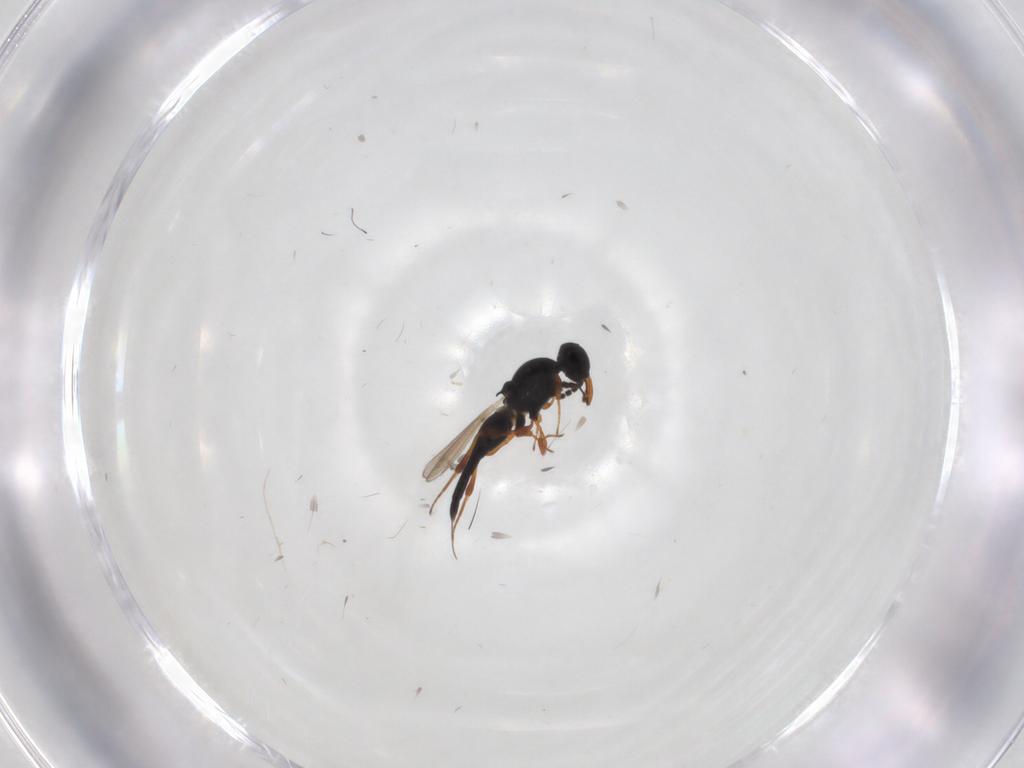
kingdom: Animalia
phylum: Arthropoda
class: Insecta
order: Hymenoptera
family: Platygastridae
